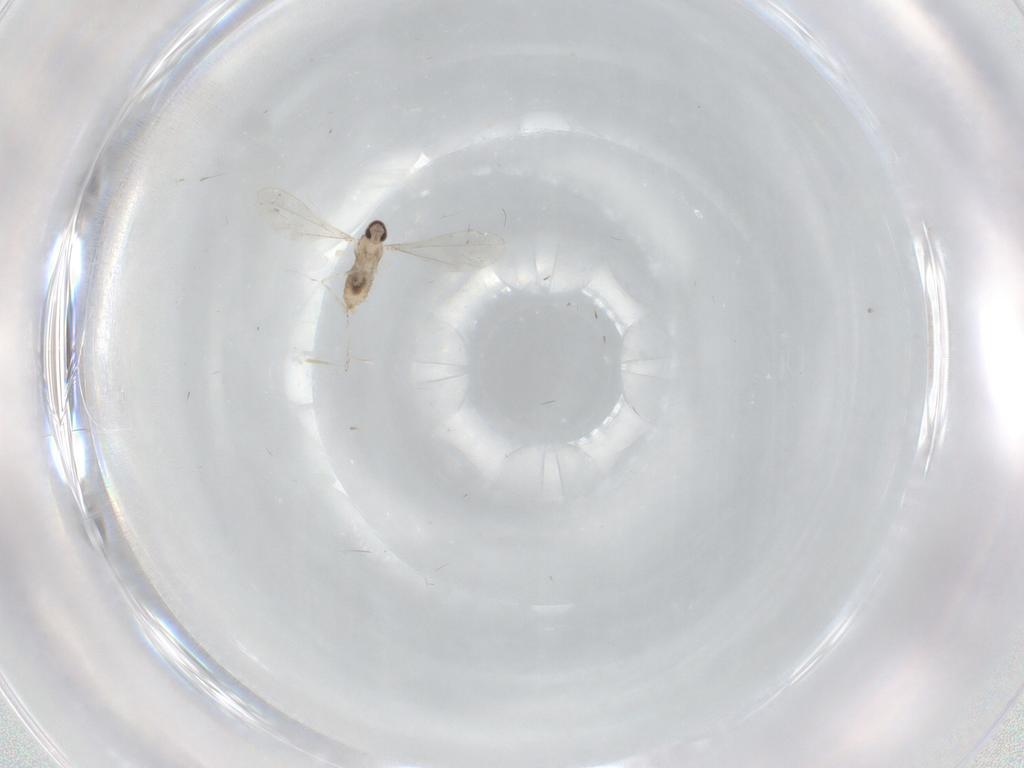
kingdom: Animalia
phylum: Arthropoda
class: Insecta
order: Diptera
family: Cecidomyiidae
